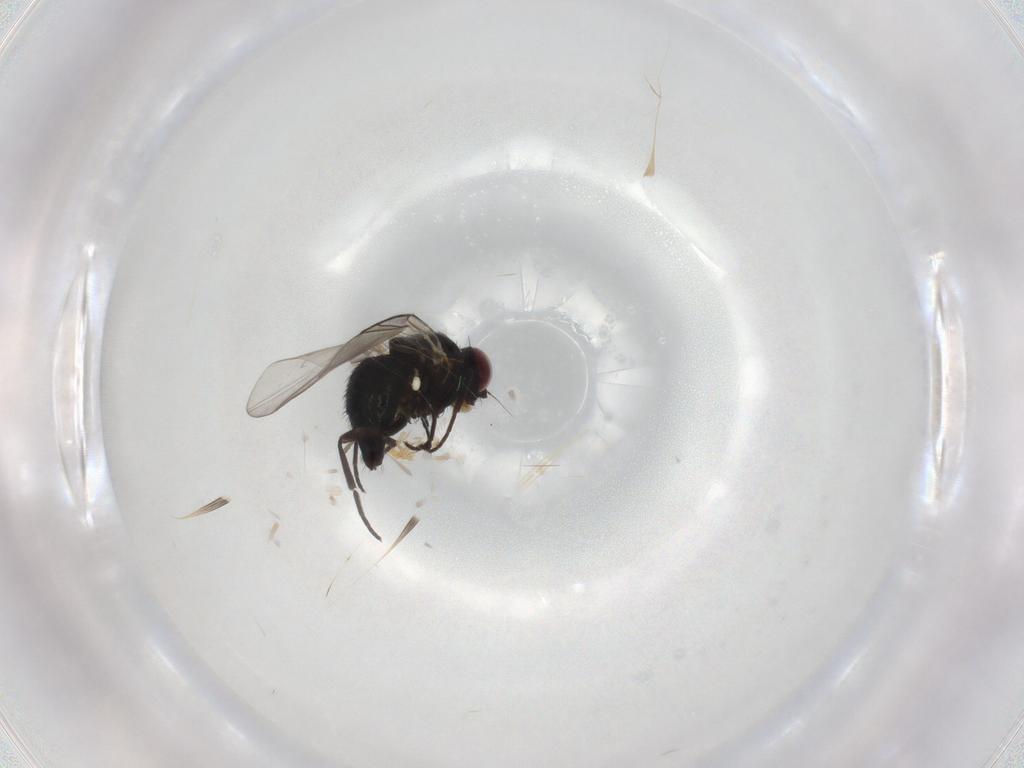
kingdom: Animalia
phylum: Arthropoda
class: Insecta
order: Diptera
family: Agromyzidae
